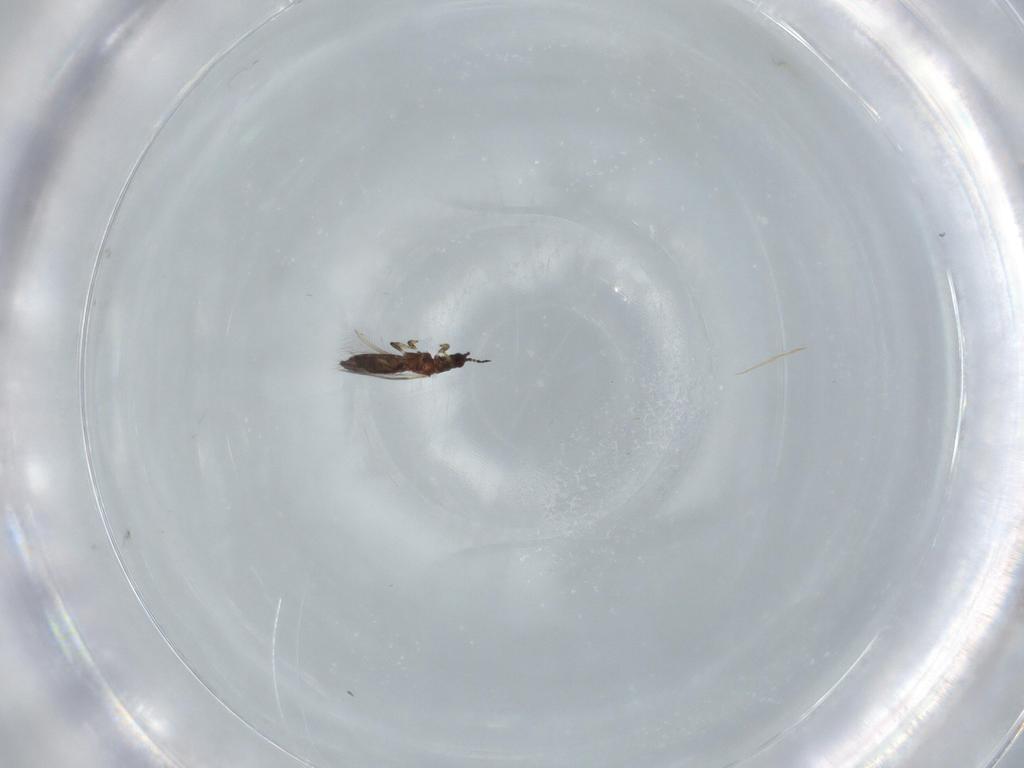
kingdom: Animalia
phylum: Arthropoda
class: Insecta
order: Thysanoptera
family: Thripidae
